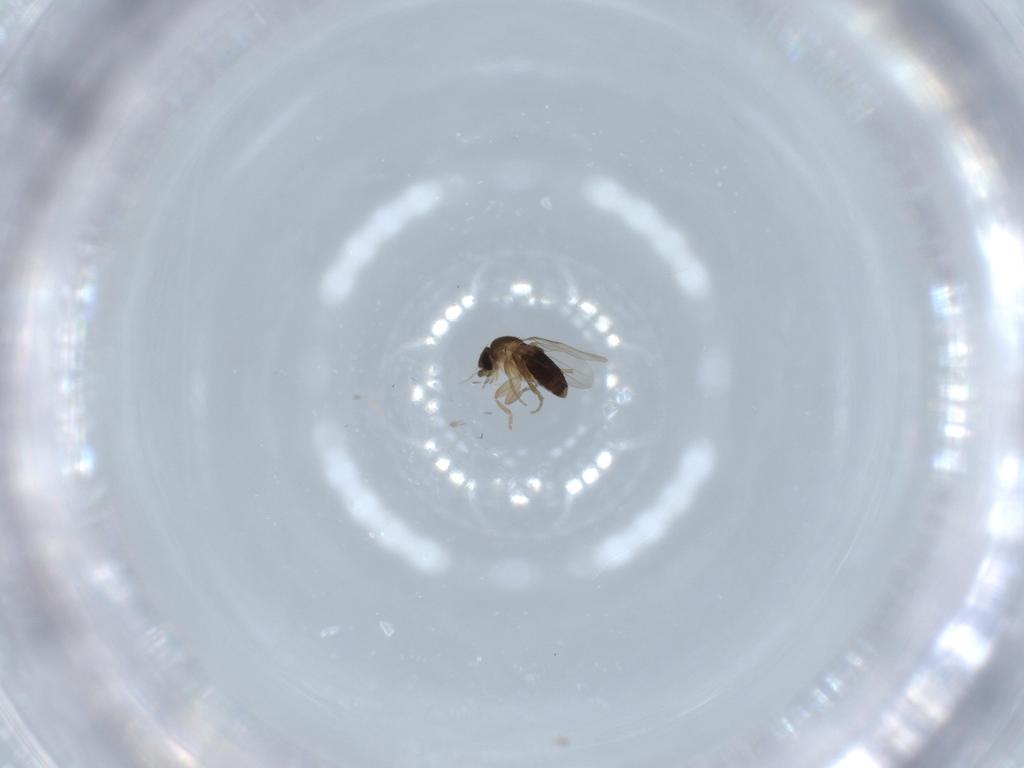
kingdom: Animalia
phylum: Arthropoda
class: Insecta
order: Diptera
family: Phoridae
